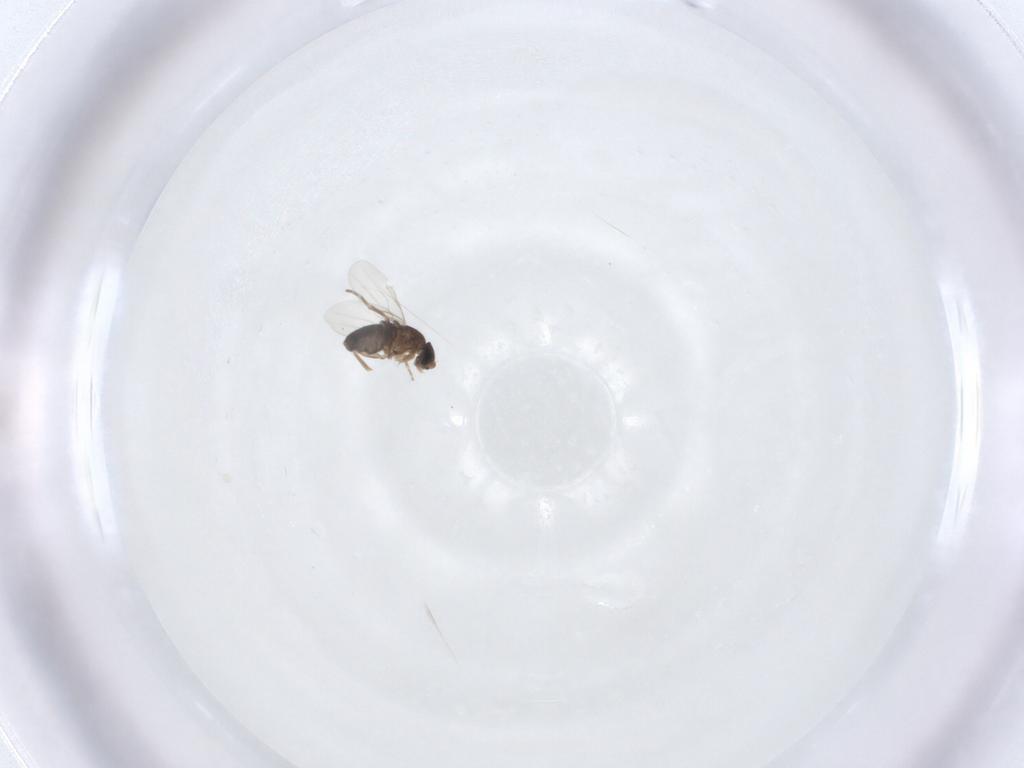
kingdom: Animalia
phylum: Arthropoda
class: Insecta
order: Diptera
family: Phoridae
